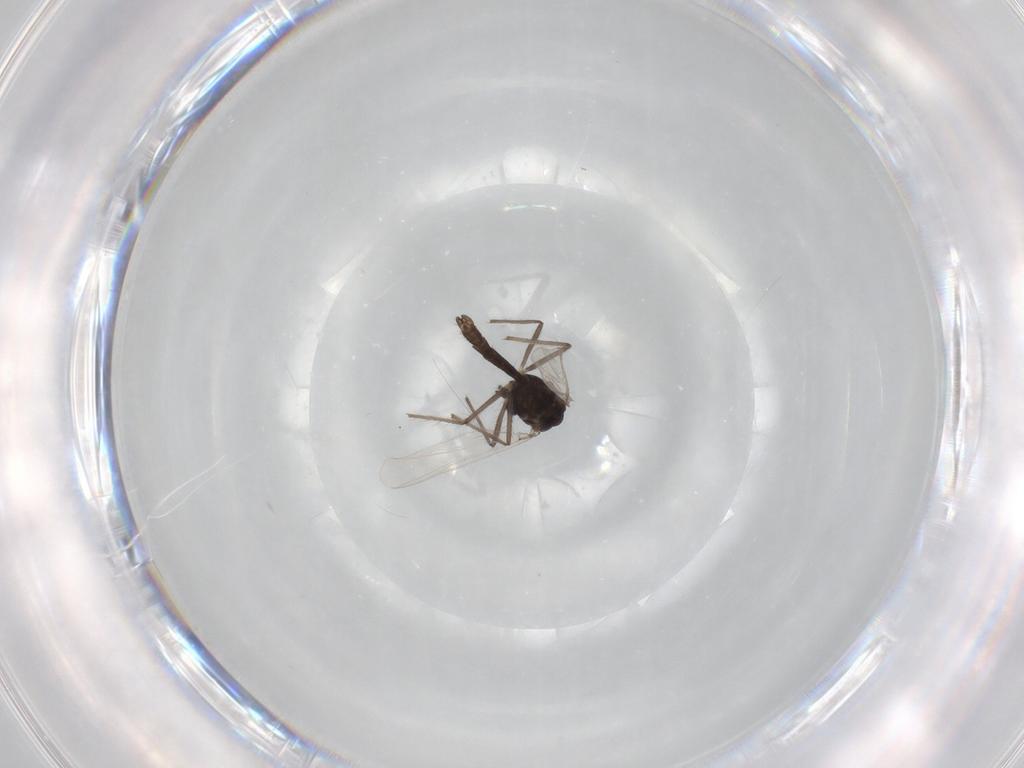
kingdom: Animalia
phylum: Arthropoda
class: Insecta
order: Diptera
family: Chironomidae
